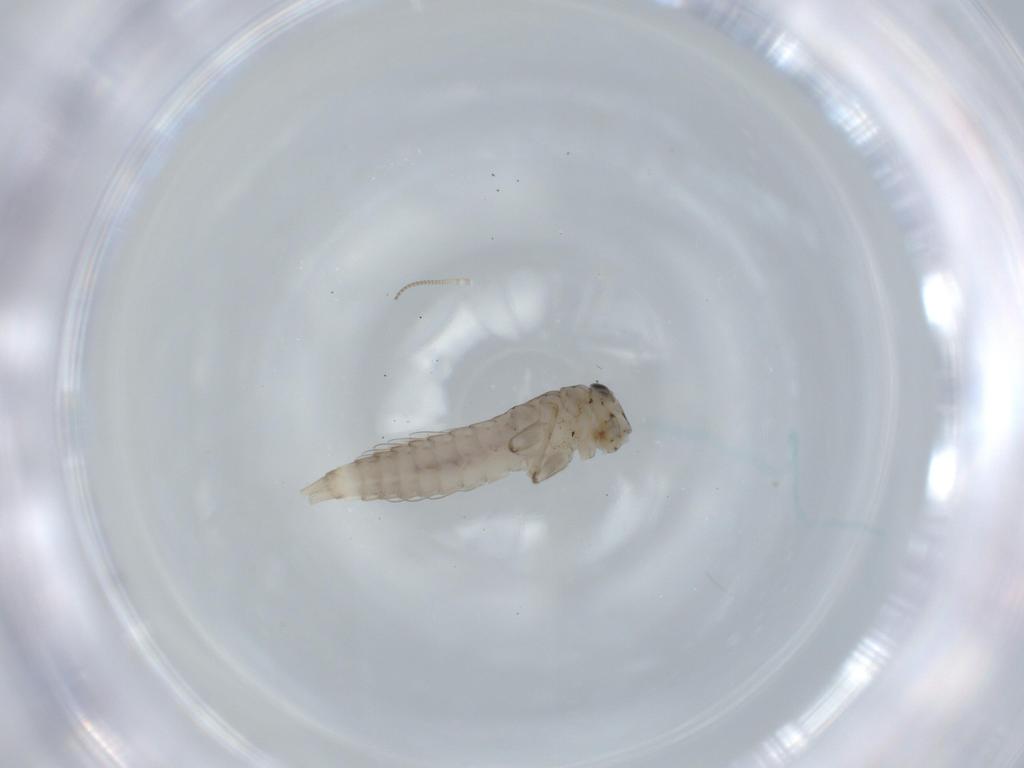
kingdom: Animalia
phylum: Arthropoda
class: Insecta
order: Ephemeroptera
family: Baetidae
